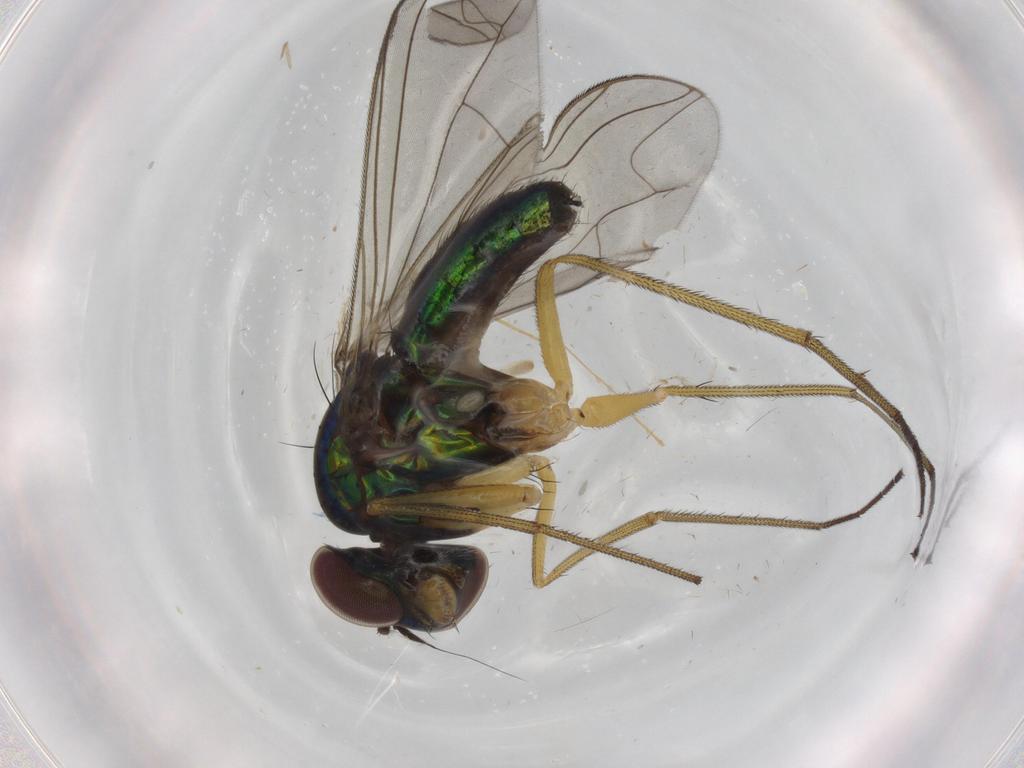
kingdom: Animalia
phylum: Arthropoda
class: Insecta
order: Diptera
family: Dolichopodidae
